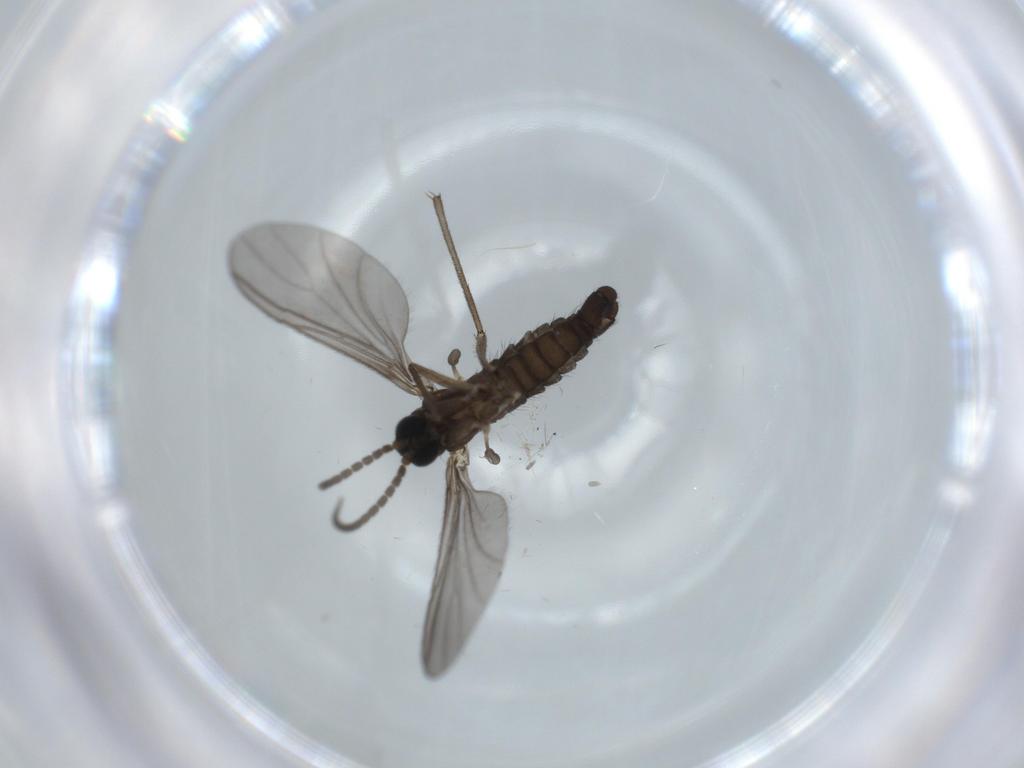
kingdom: Animalia
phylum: Arthropoda
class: Insecta
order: Diptera
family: Sciaridae
